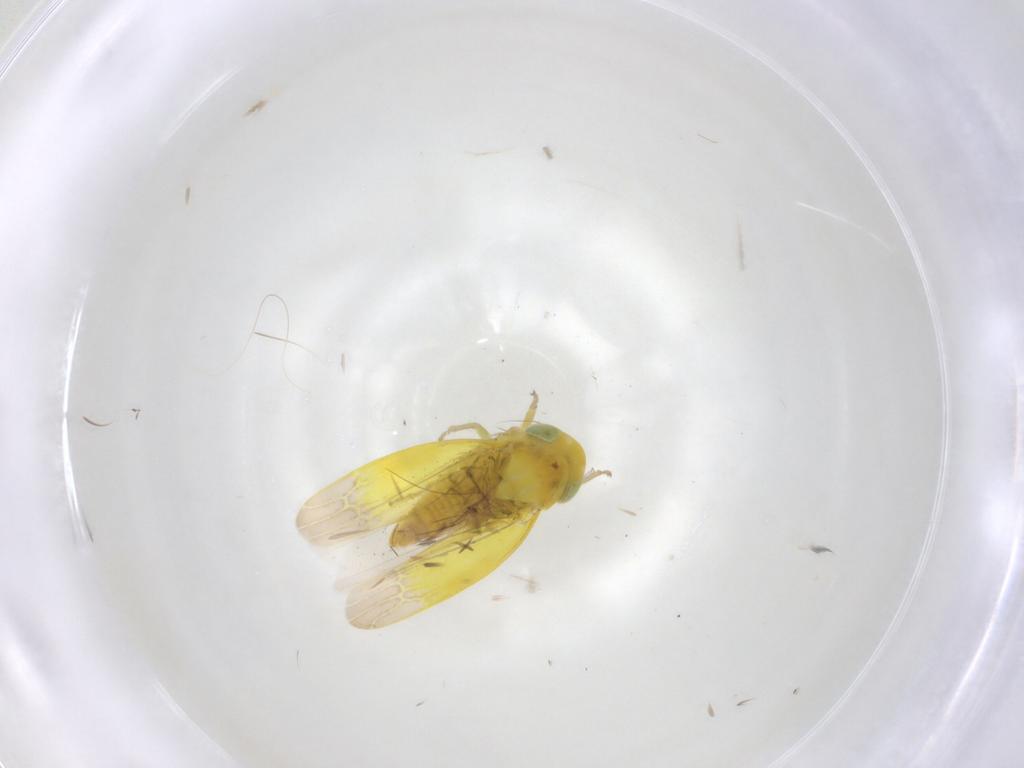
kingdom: Animalia
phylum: Arthropoda
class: Insecta
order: Hemiptera
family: Cicadellidae
